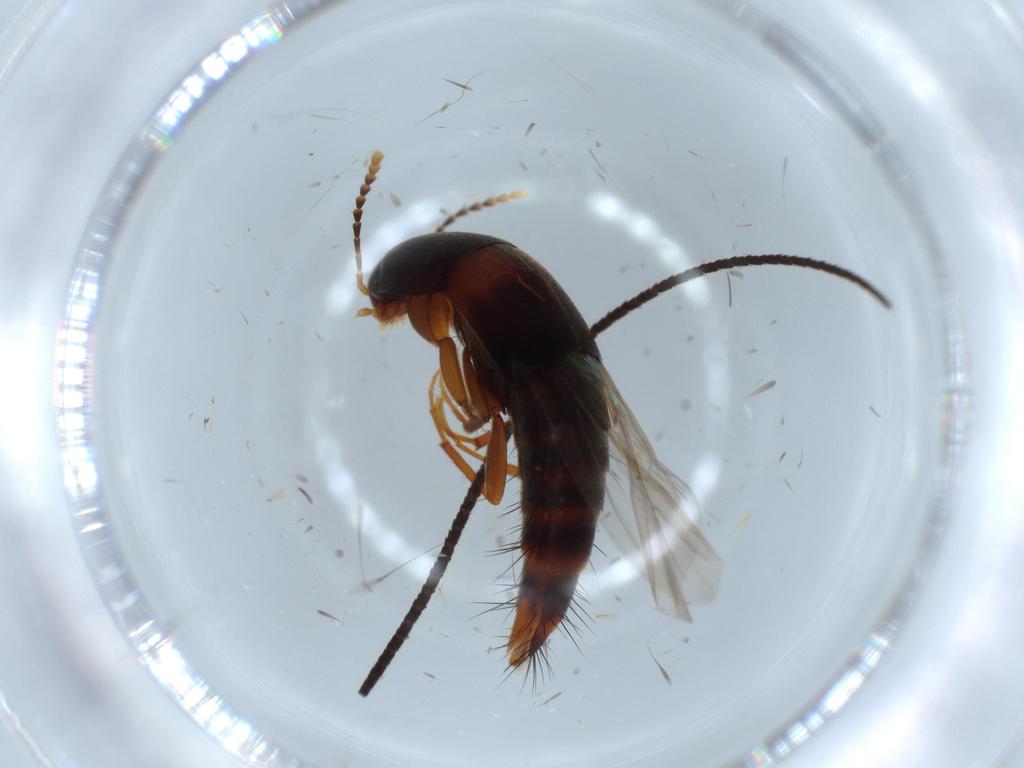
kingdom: Animalia
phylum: Arthropoda
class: Insecta
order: Coleoptera
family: Staphylinidae
